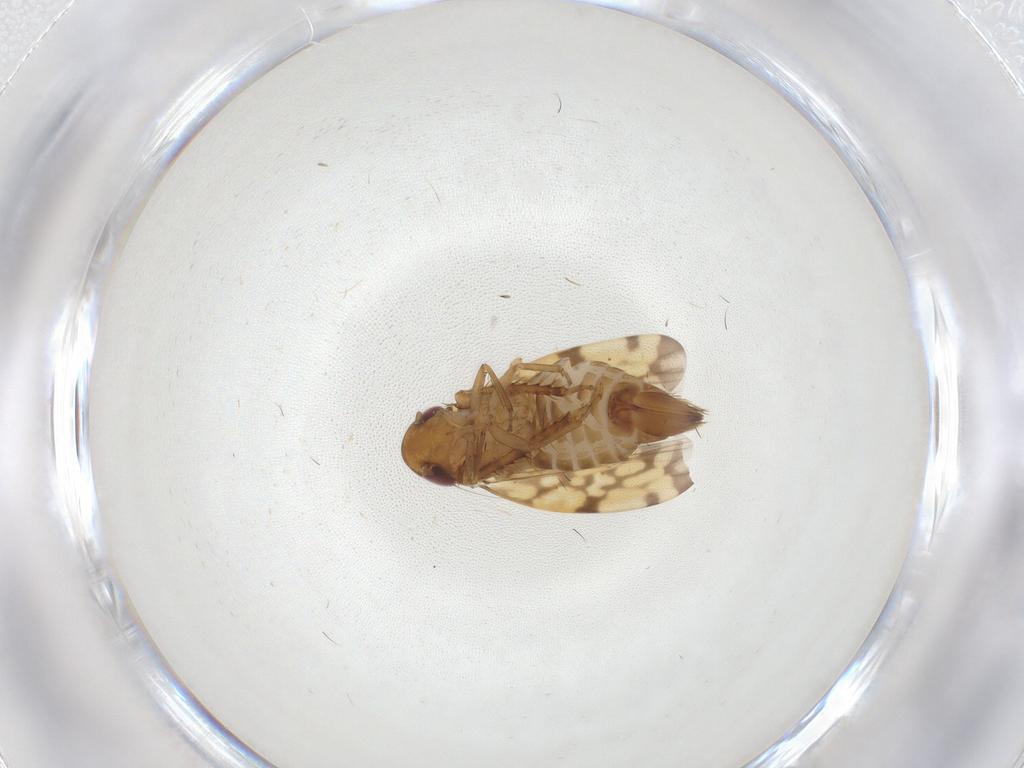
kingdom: Animalia
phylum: Arthropoda
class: Insecta
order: Hemiptera
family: Cicadellidae
